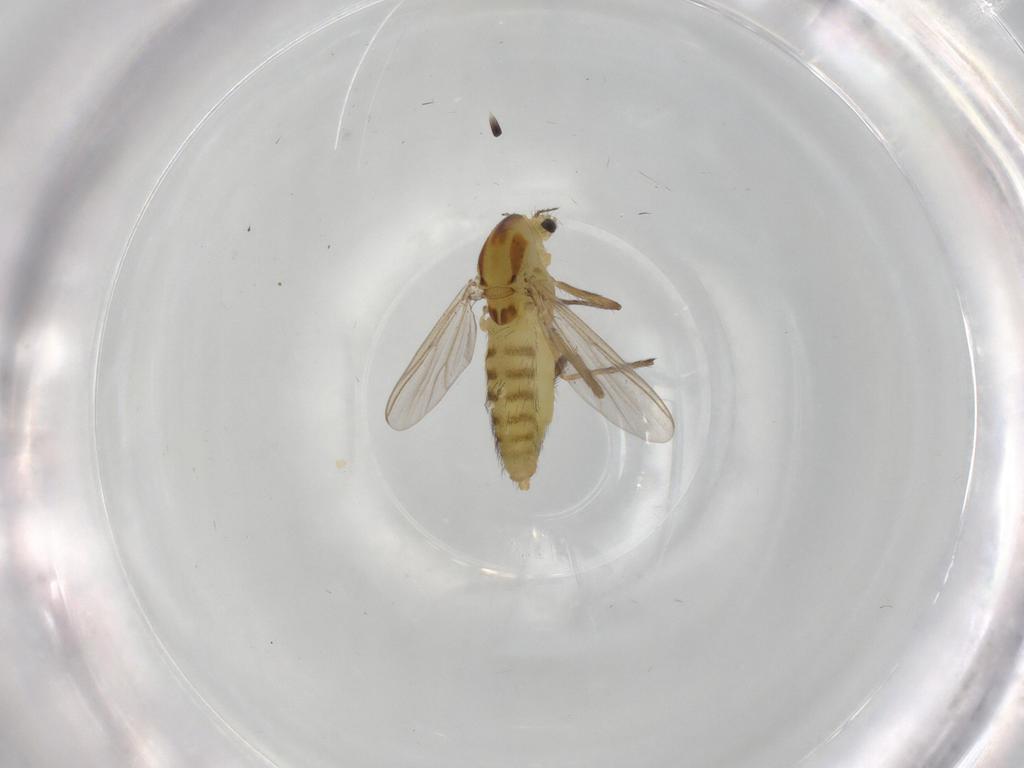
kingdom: Animalia
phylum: Arthropoda
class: Insecta
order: Diptera
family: Chironomidae
